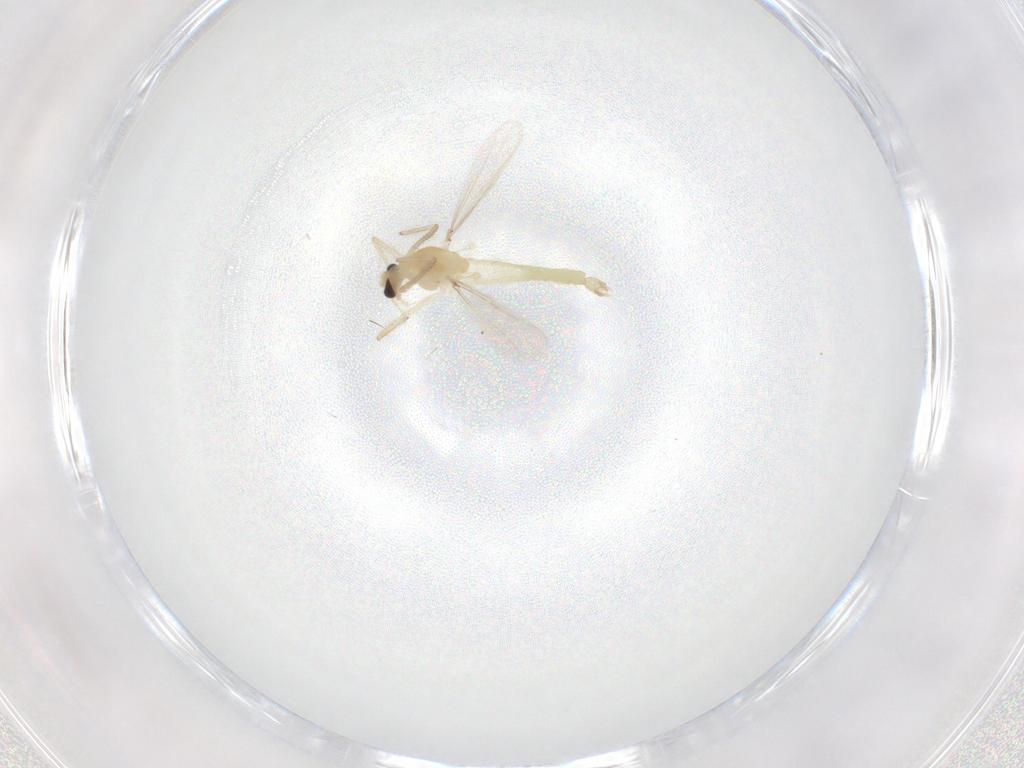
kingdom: Animalia
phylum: Arthropoda
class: Insecta
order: Diptera
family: Chironomidae
